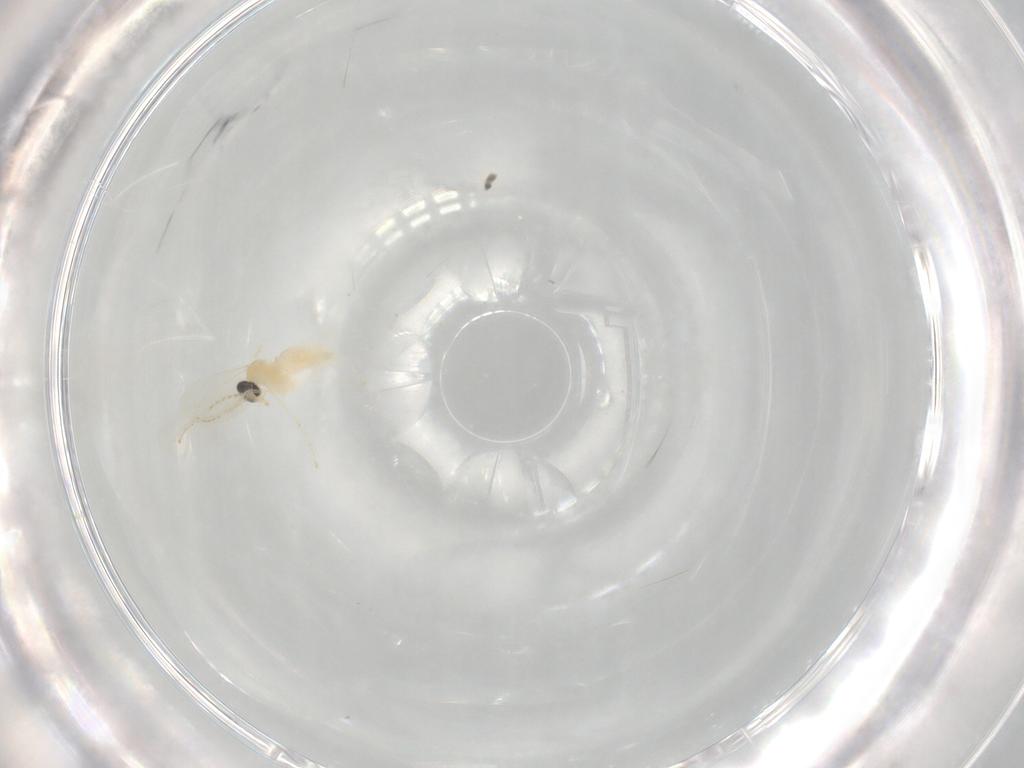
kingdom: Animalia
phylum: Arthropoda
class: Insecta
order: Diptera
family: Cecidomyiidae
